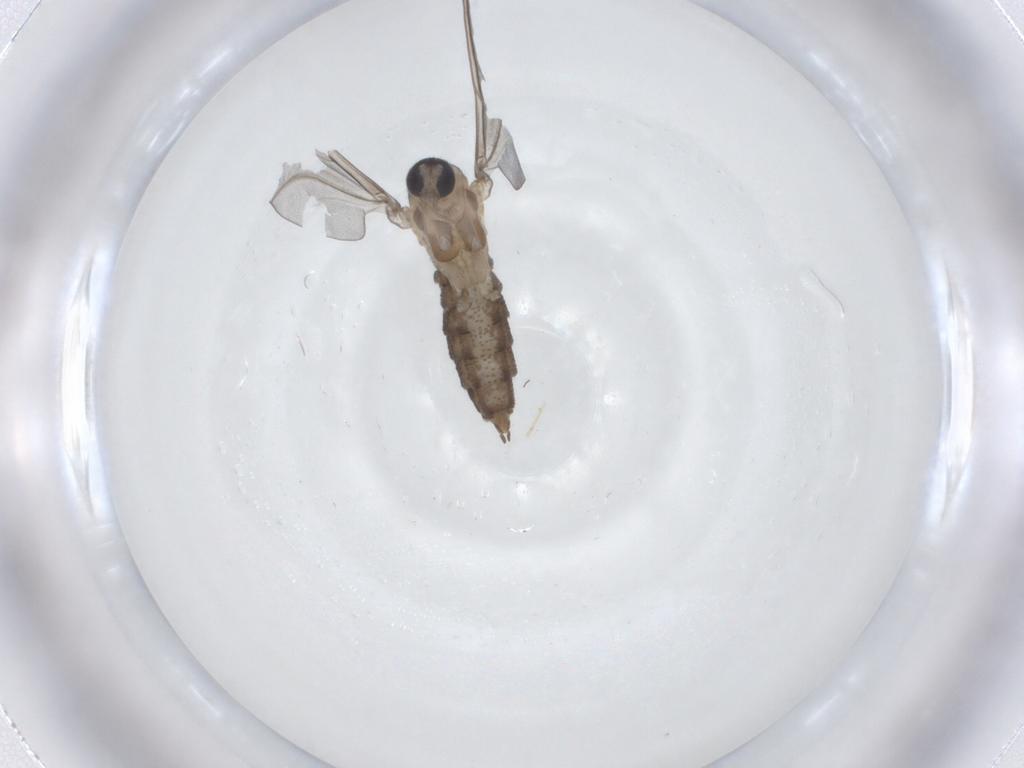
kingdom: Animalia
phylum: Arthropoda
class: Insecta
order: Diptera
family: Cecidomyiidae
